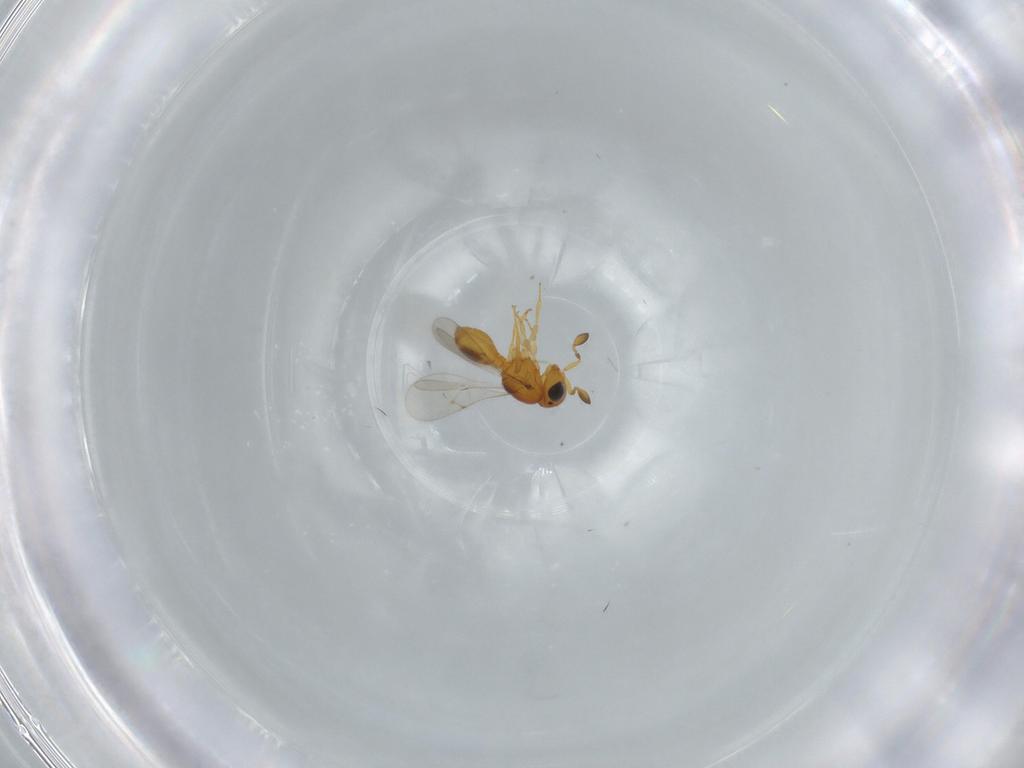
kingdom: Animalia
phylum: Arthropoda
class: Insecta
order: Hymenoptera
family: Scelionidae
